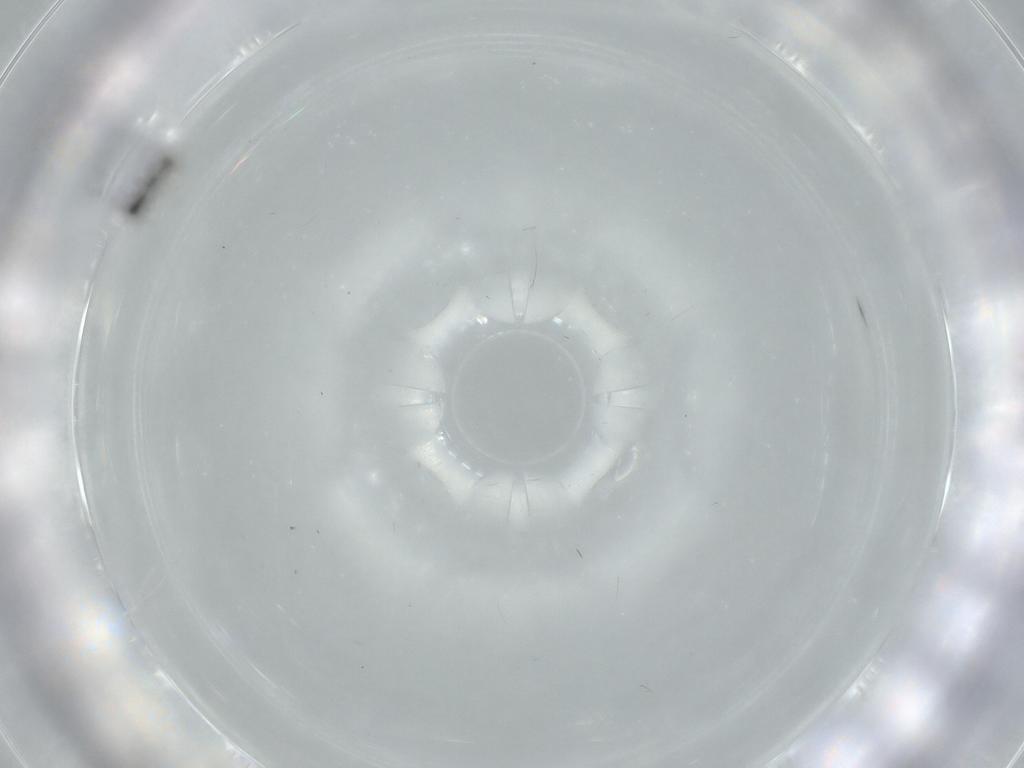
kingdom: Animalia
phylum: Arthropoda
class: Insecta
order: Hymenoptera
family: Aphelinidae
